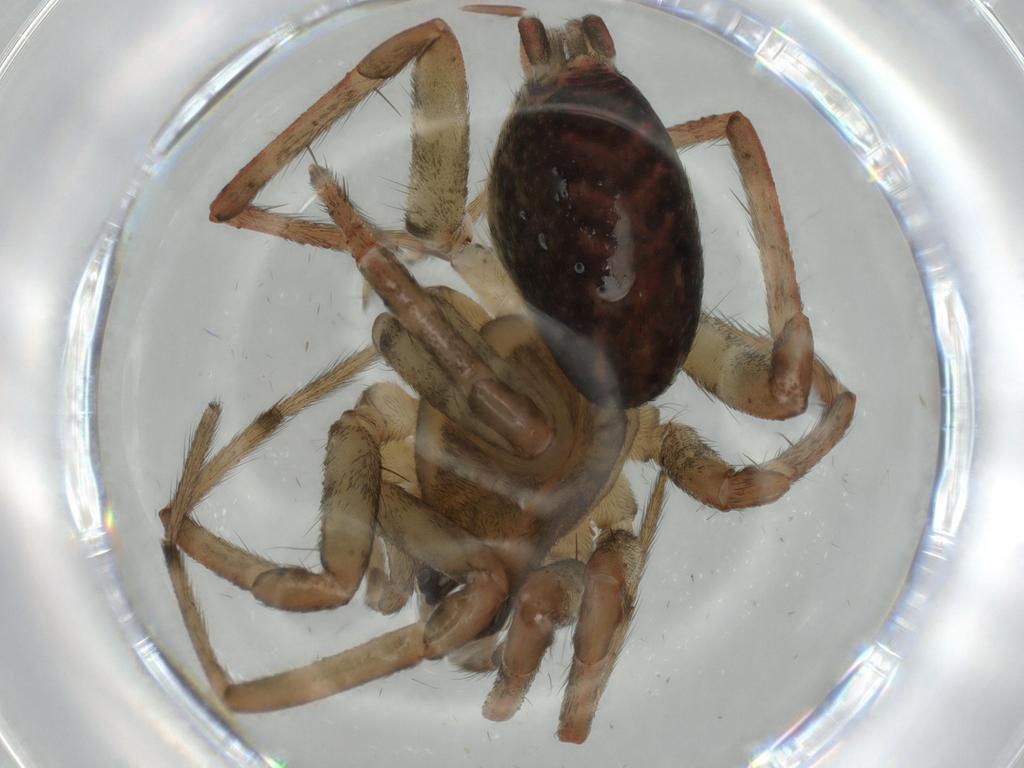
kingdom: Animalia
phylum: Arthropoda
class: Arachnida
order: Araneae
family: Agelenidae
